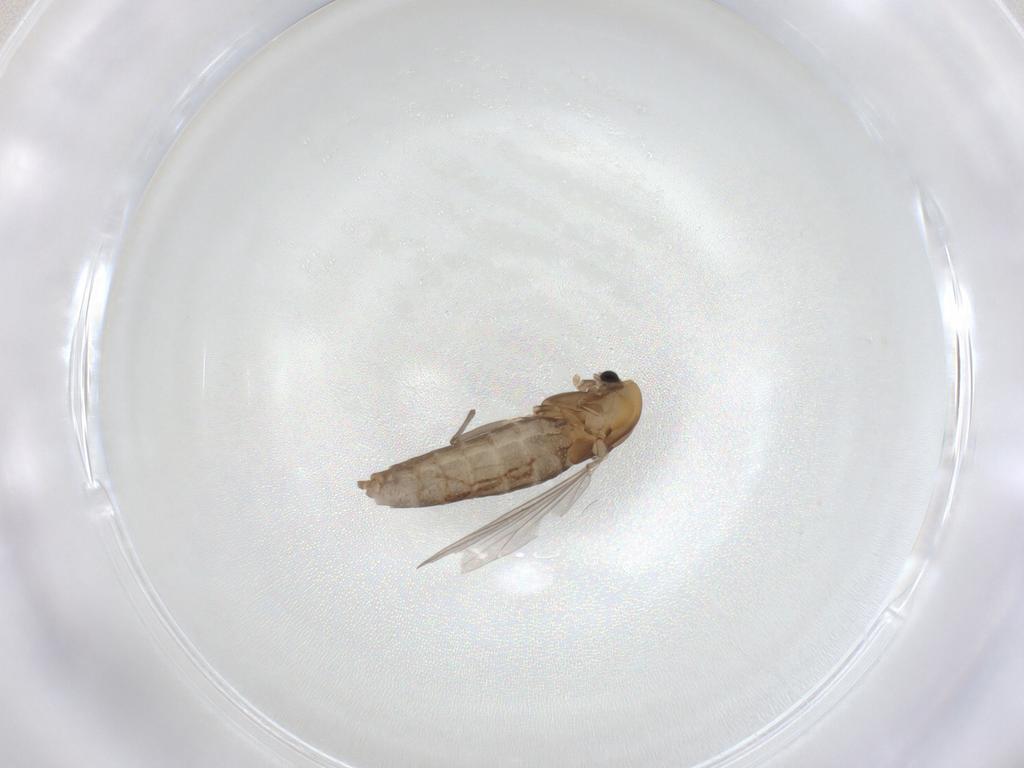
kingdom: Animalia
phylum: Arthropoda
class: Insecta
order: Diptera
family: Chironomidae
